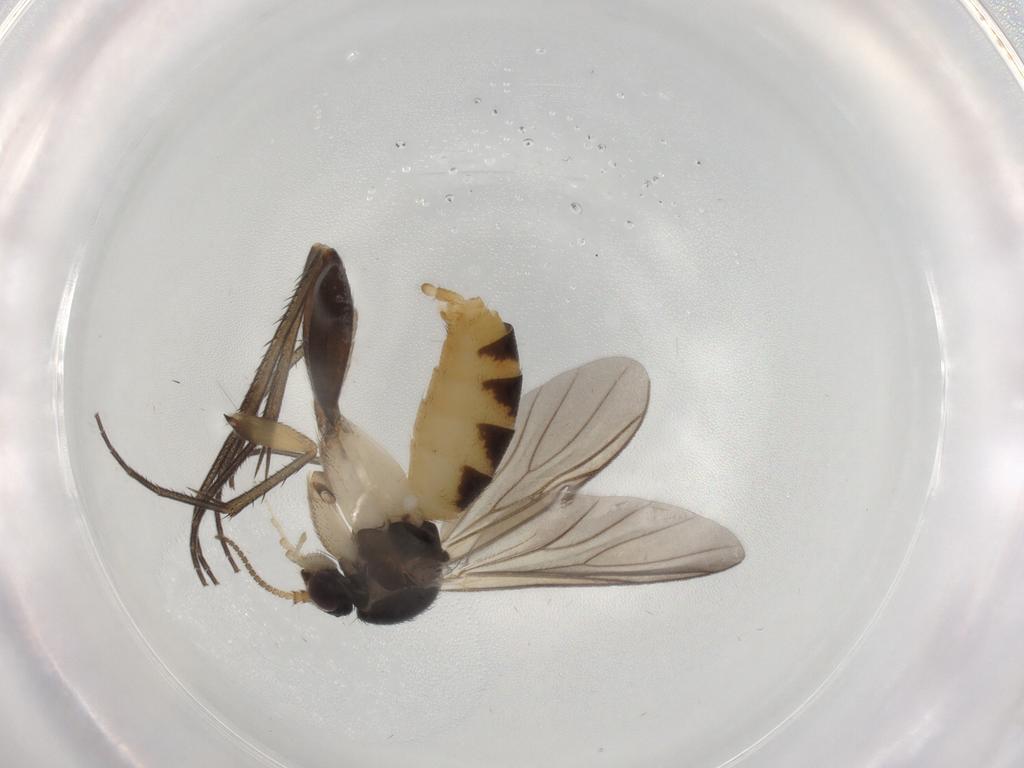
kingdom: Animalia
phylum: Arthropoda
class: Insecta
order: Diptera
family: Mycetophilidae
